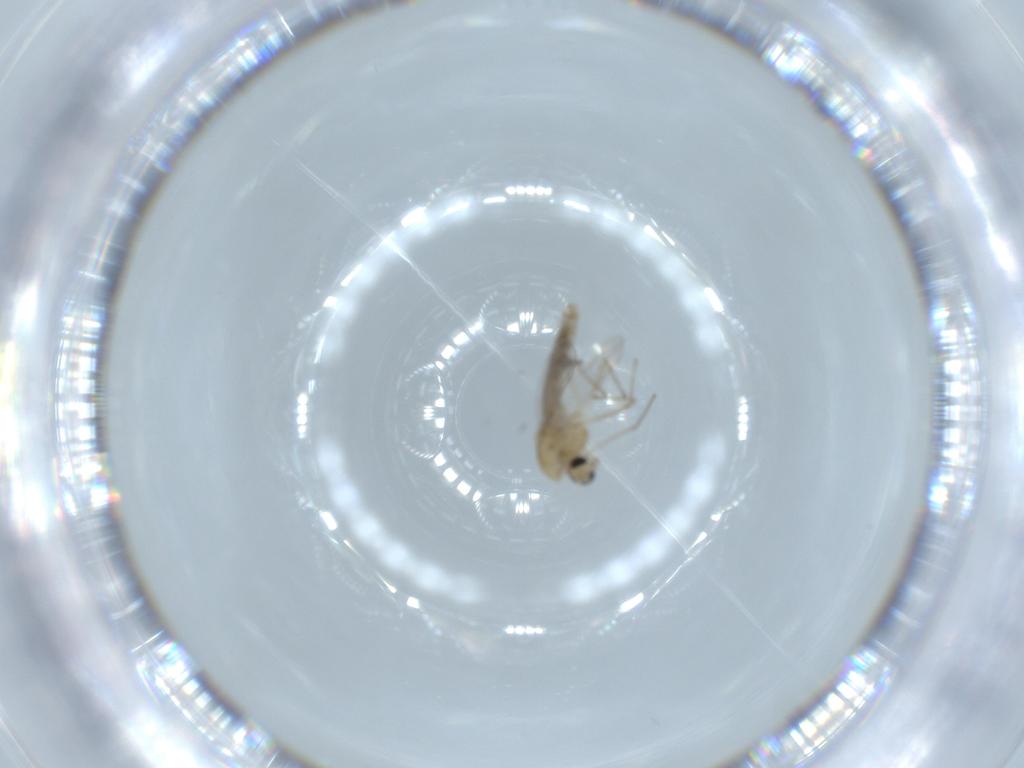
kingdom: Animalia
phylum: Arthropoda
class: Insecta
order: Diptera
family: Chironomidae
